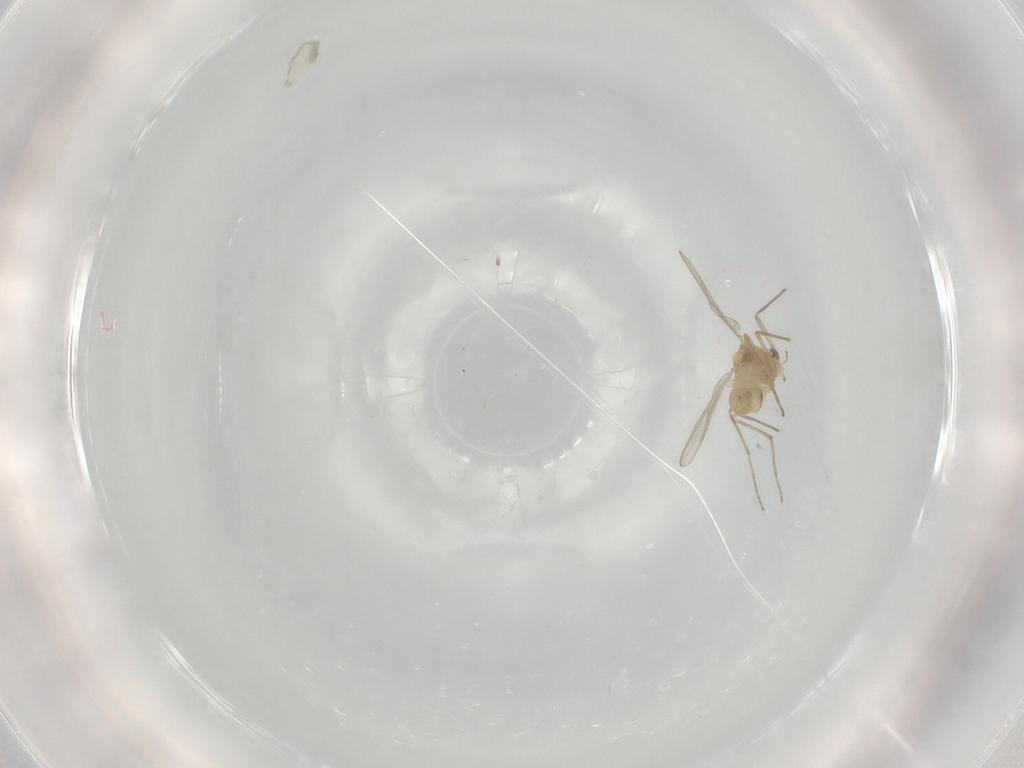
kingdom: Animalia
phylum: Arthropoda
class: Insecta
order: Diptera
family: Chironomidae
